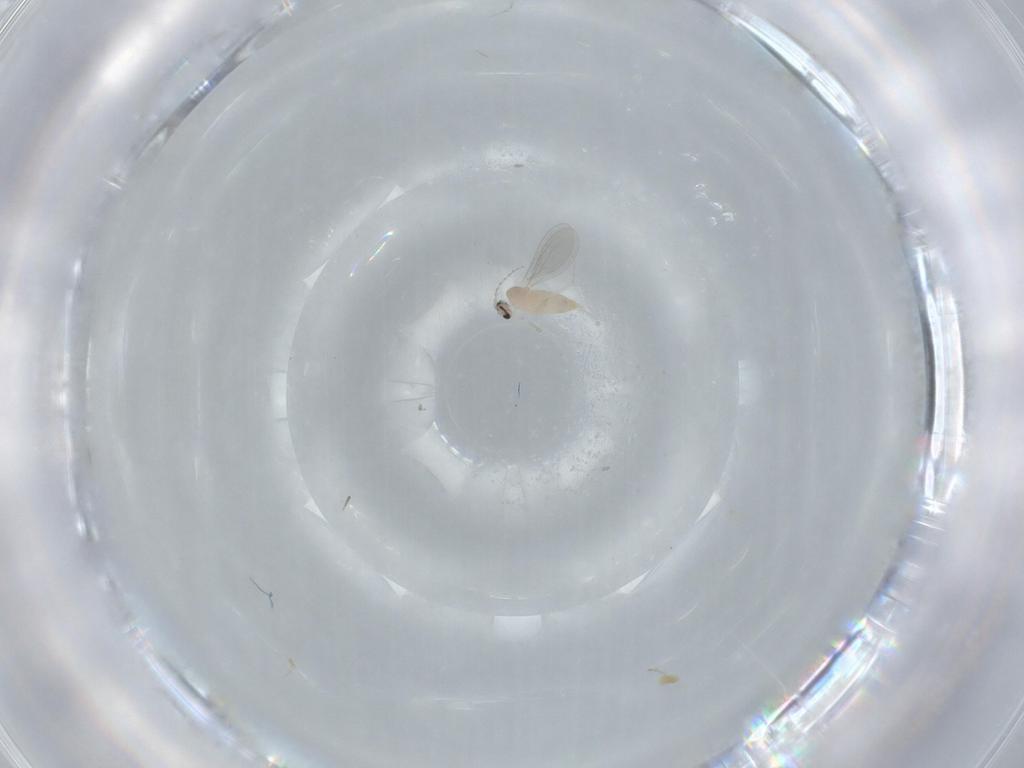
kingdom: Animalia
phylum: Arthropoda
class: Insecta
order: Diptera
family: Cecidomyiidae
